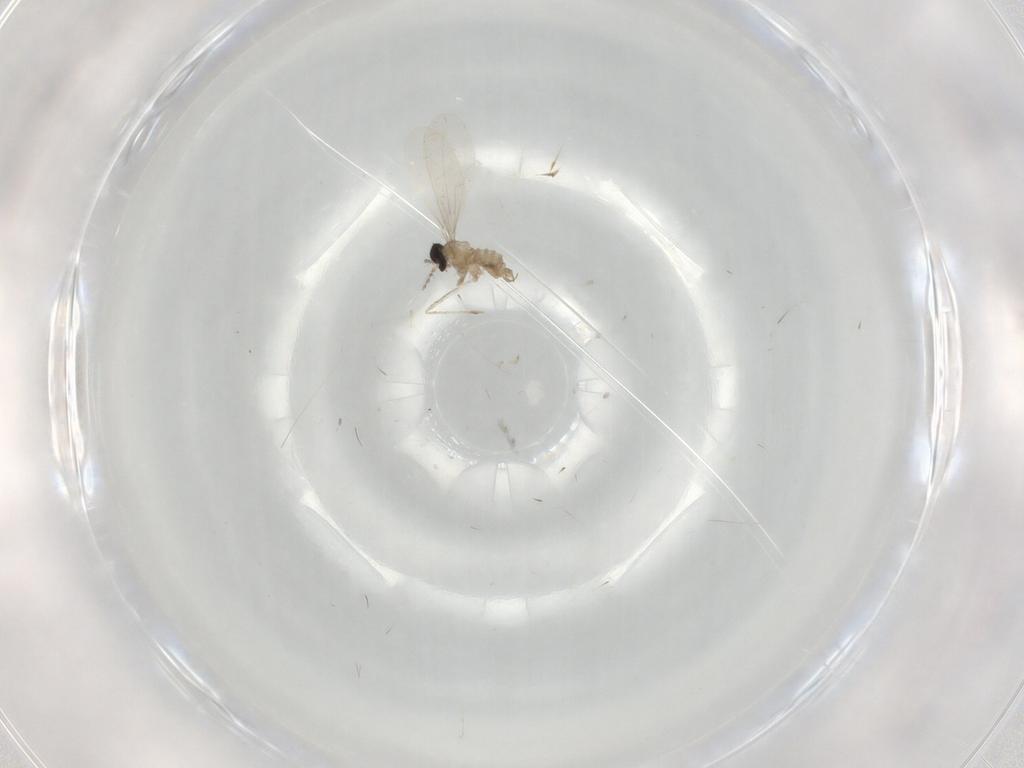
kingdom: Animalia
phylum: Arthropoda
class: Insecta
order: Diptera
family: Cecidomyiidae
